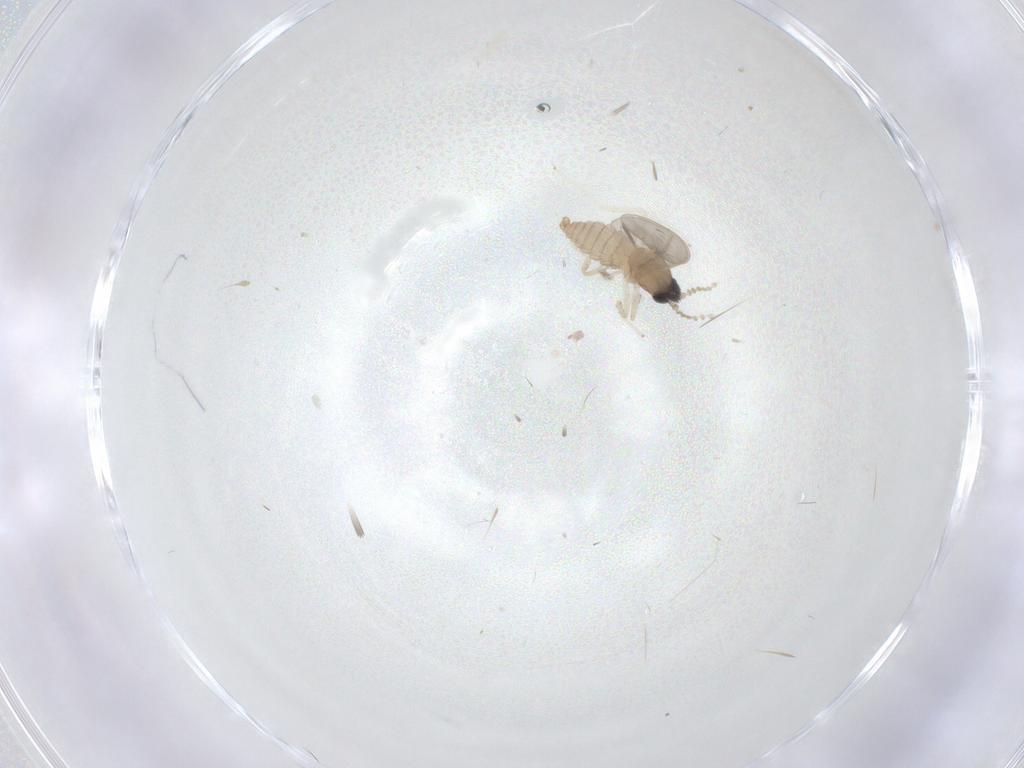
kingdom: Animalia
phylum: Arthropoda
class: Insecta
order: Diptera
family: Cecidomyiidae
